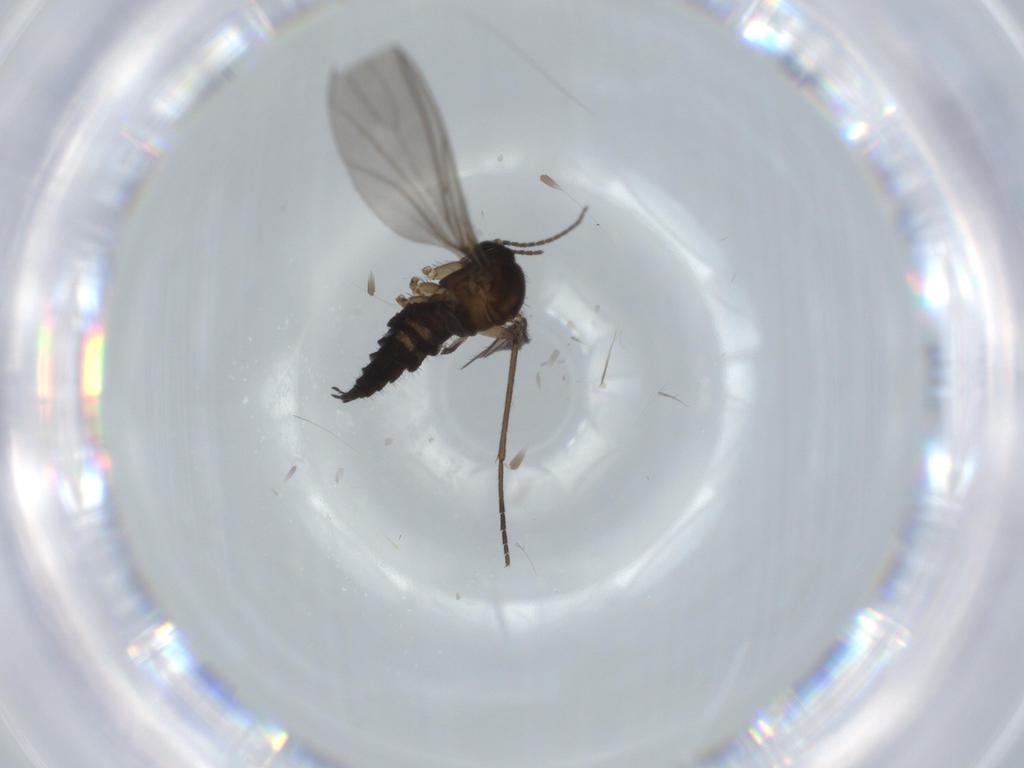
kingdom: Animalia
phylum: Arthropoda
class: Insecta
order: Diptera
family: Sciaridae
